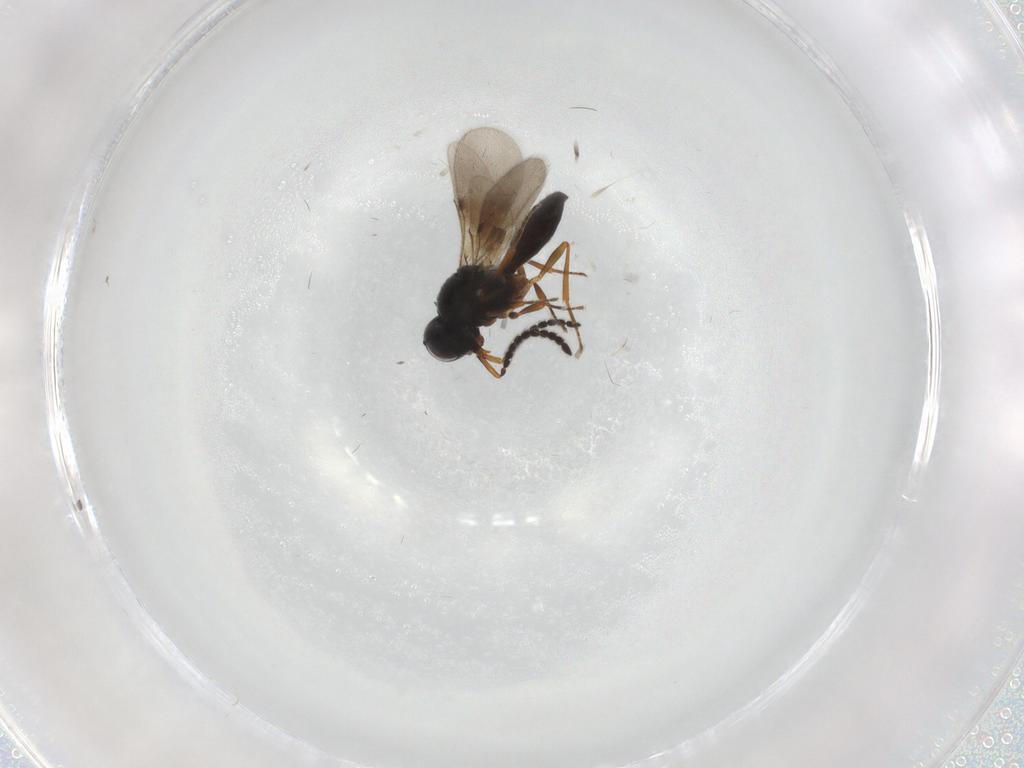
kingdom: Animalia
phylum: Arthropoda
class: Insecta
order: Hymenoptera
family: Scelionidae
